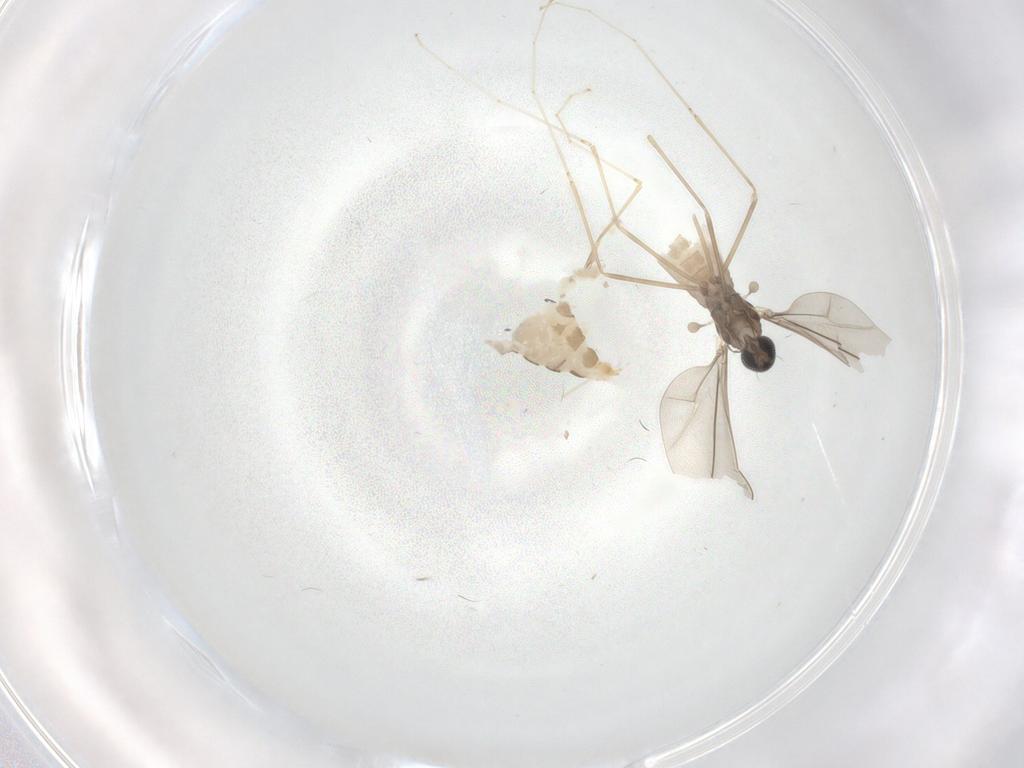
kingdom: Animalia
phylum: Arthropoda
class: Insecta
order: Diptera
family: Cecidomyiidae
